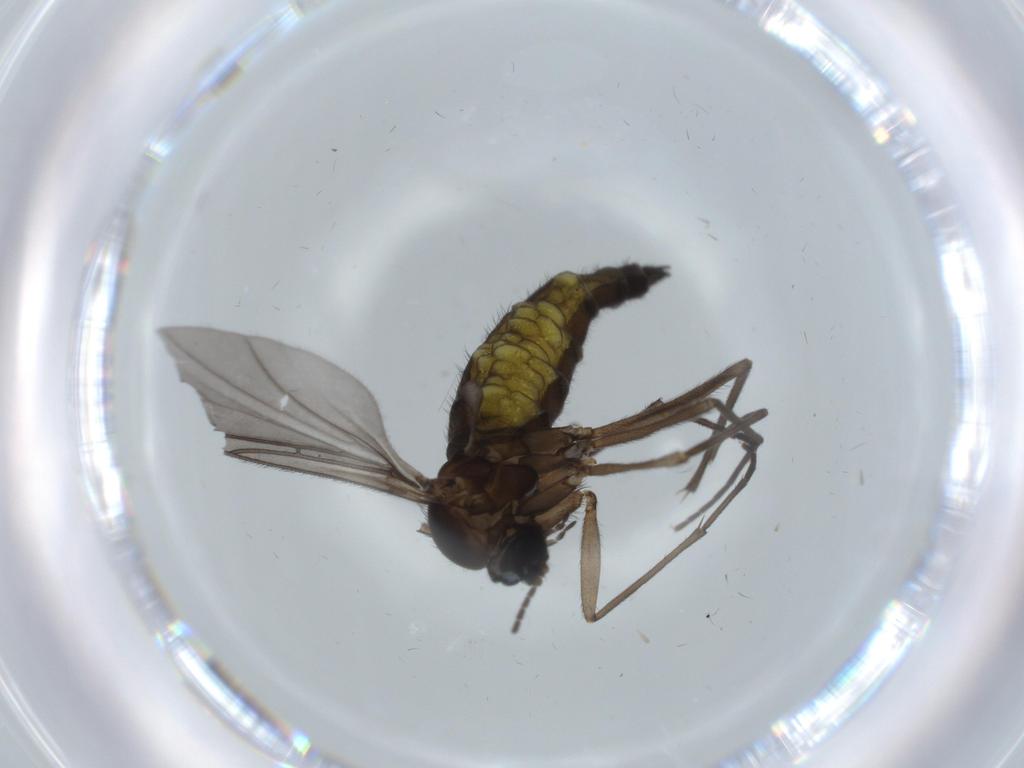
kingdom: Animalia
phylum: Arthropoda
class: Insecta
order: Diptera
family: Sciaridae
